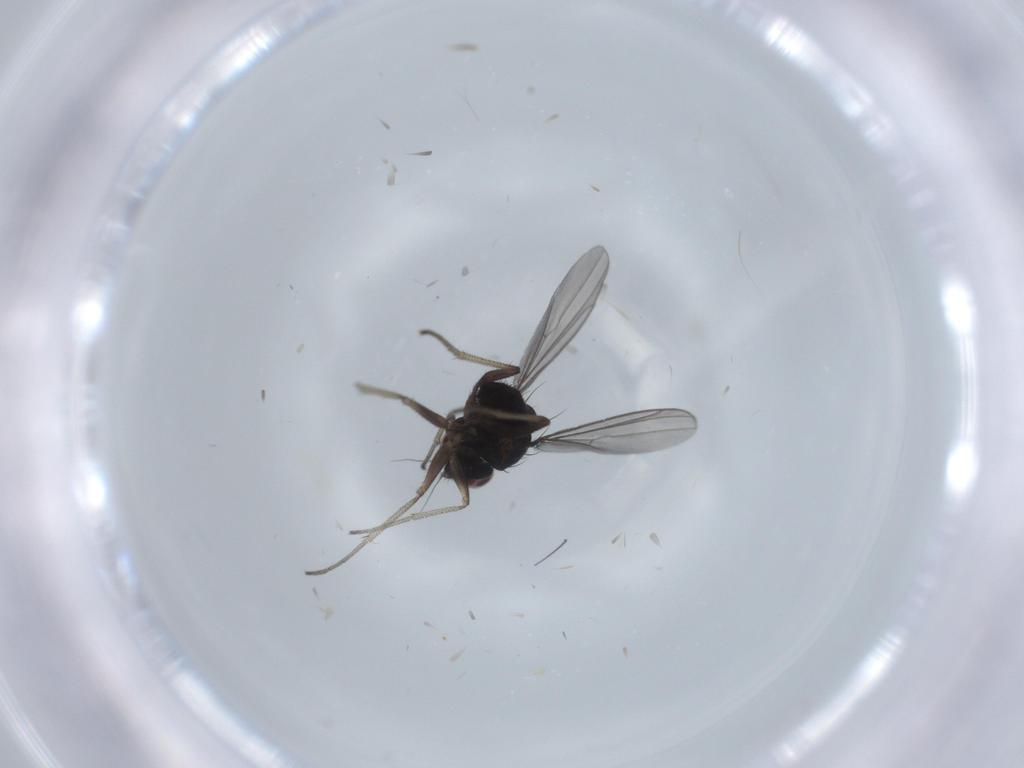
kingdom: Animalia
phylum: Arthropoda
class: Insecta
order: Diptera
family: Dolichopodidae
